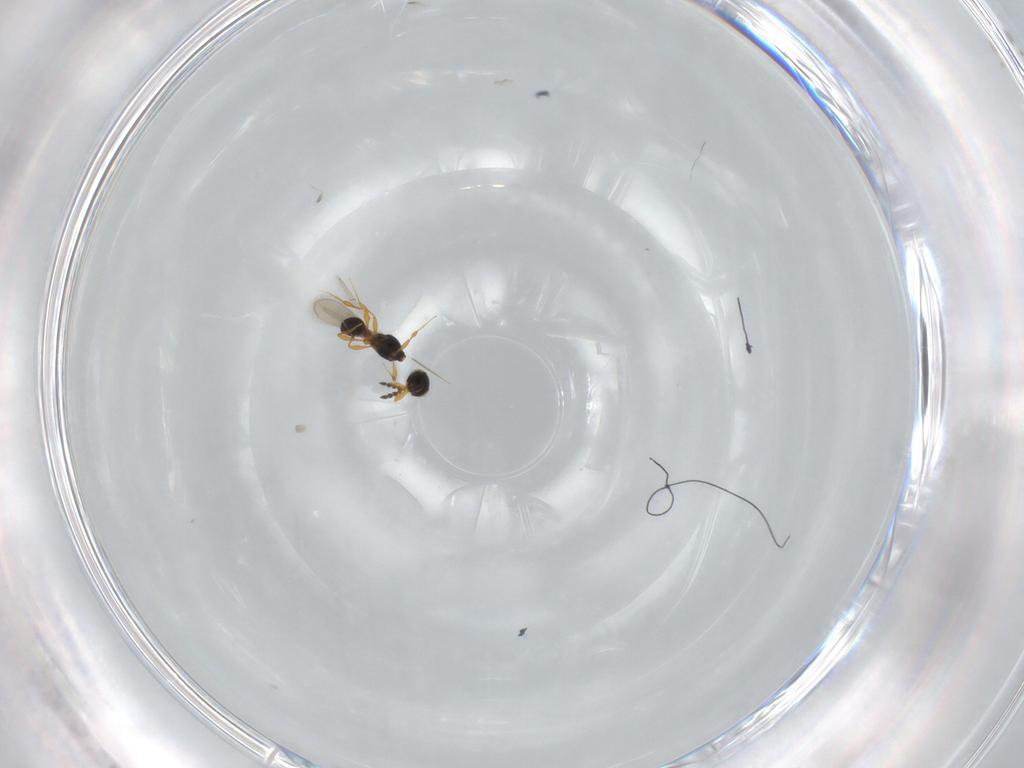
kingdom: Animalia
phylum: Arthropoda
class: Insecta
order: Hymenoptera
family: Platygastridae
